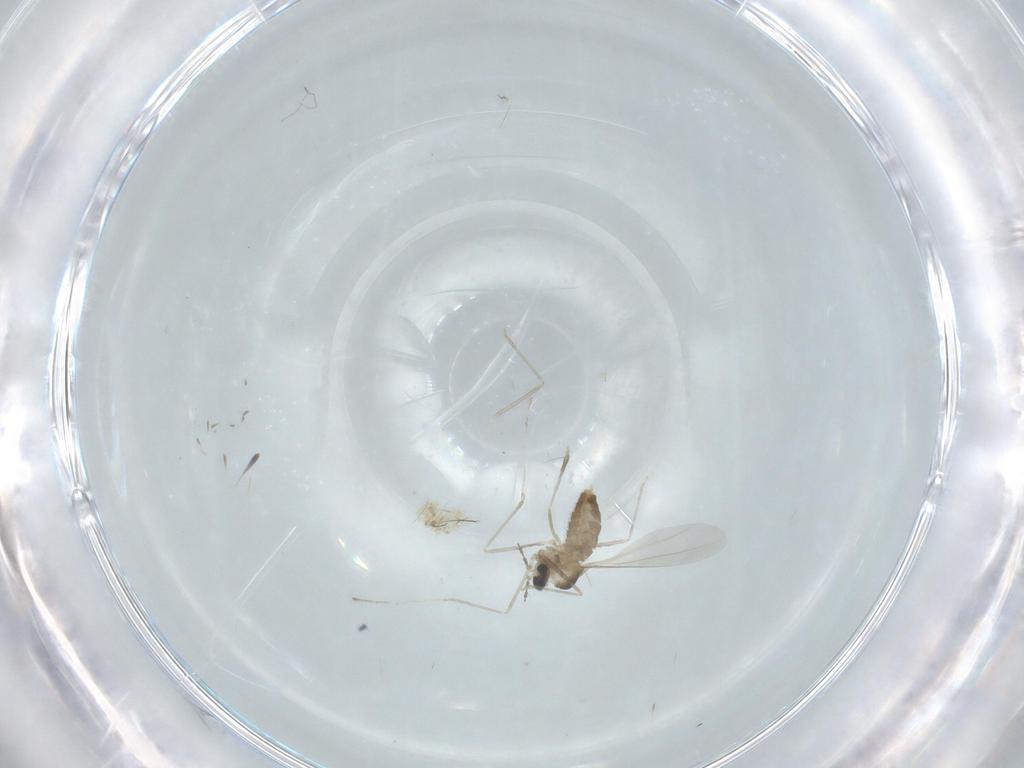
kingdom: Animalia
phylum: Arthropoda
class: Insecta
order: Diptera
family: Cecidomyiidae
